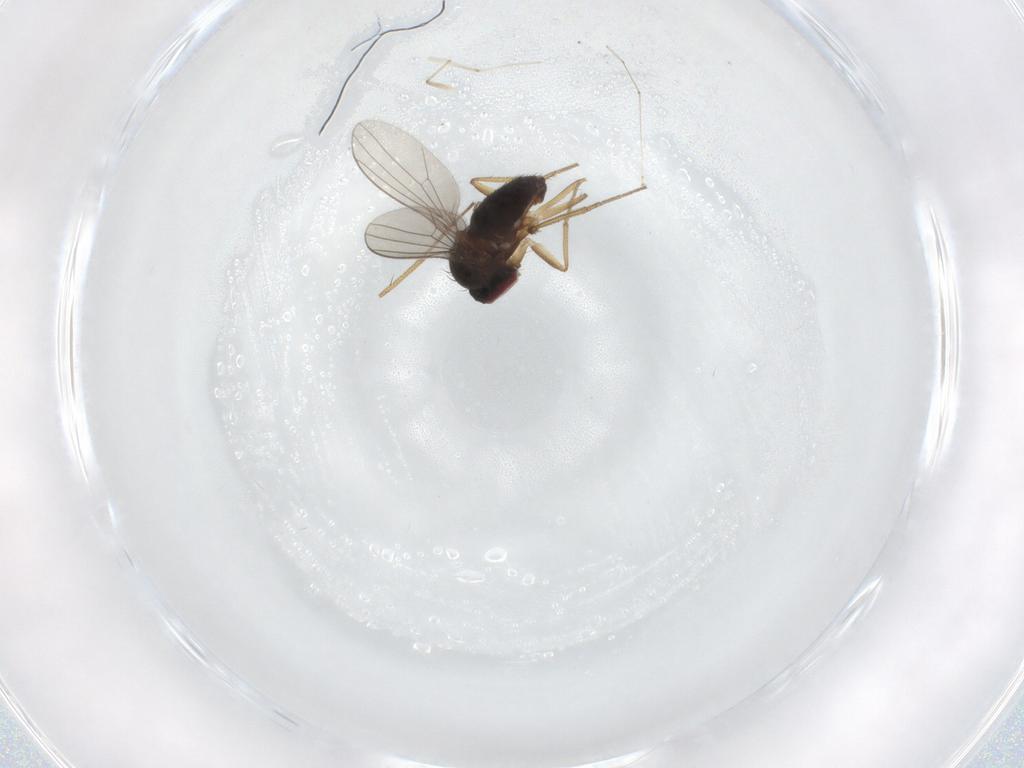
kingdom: Animalia
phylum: Arthropoda
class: Insecta
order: Diptera
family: Dolichopodidae
